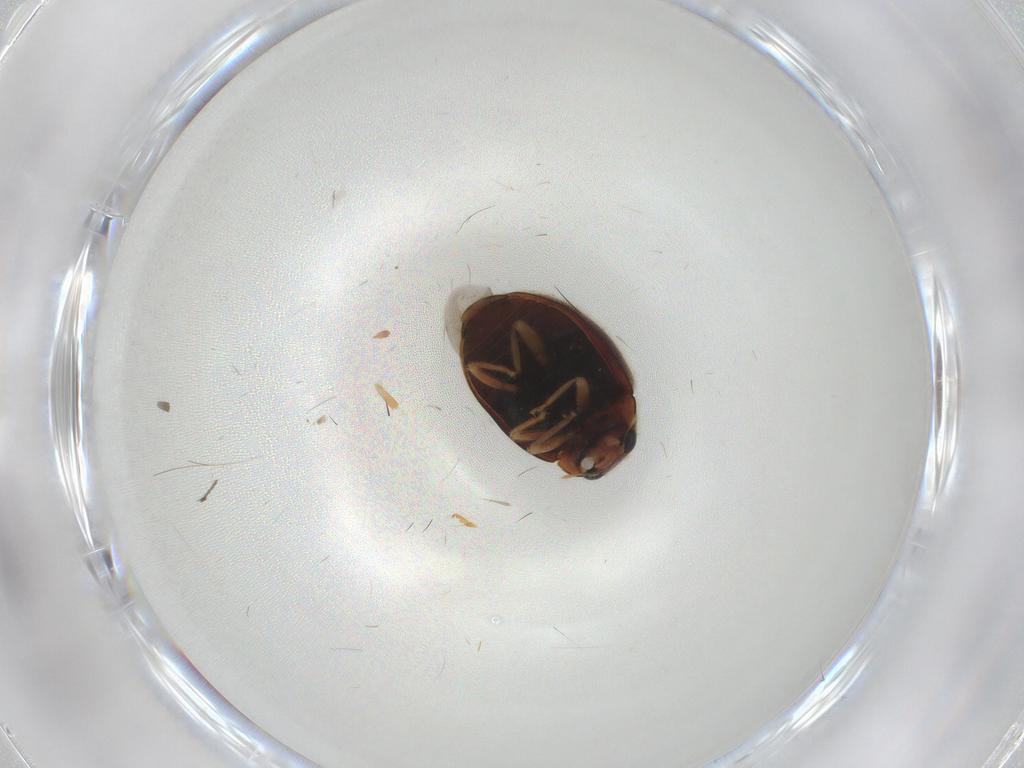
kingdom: Animalia
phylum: Arthropoda
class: Insecta
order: Coleoptera
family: Coccinellidae
